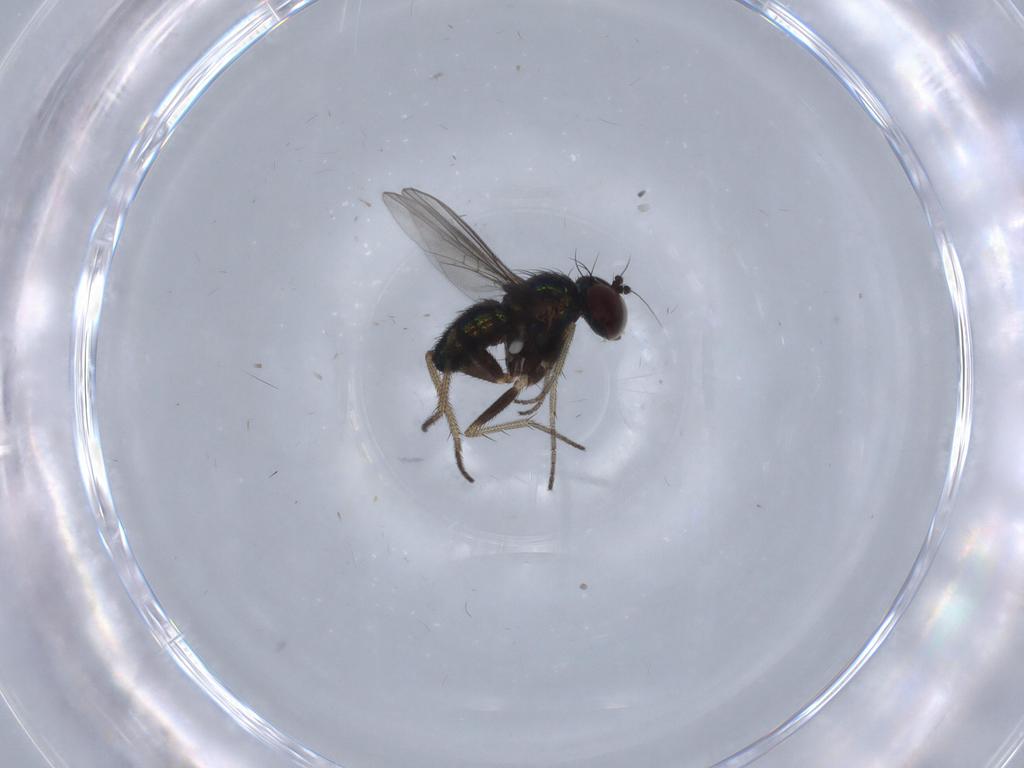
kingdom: Animalia
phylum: Arthropoda
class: Insecta
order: Diptera
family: Dolichopodidae
